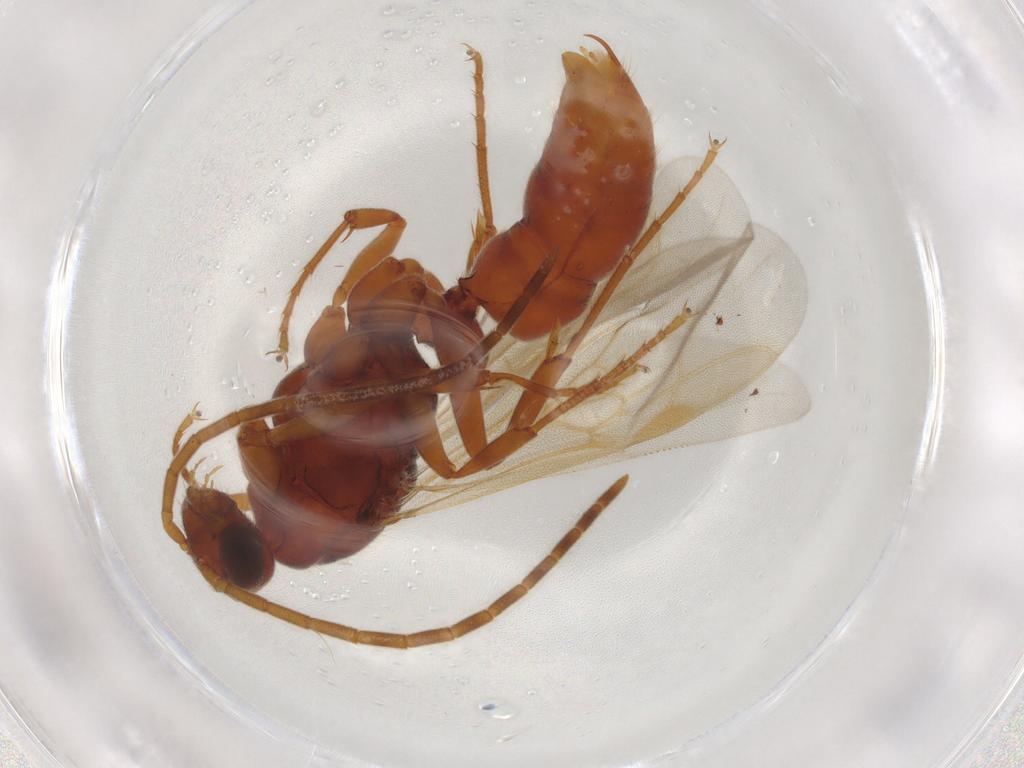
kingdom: Animalia
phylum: Arthropoda
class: Insecta
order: Hymenoptera
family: Formicidae
